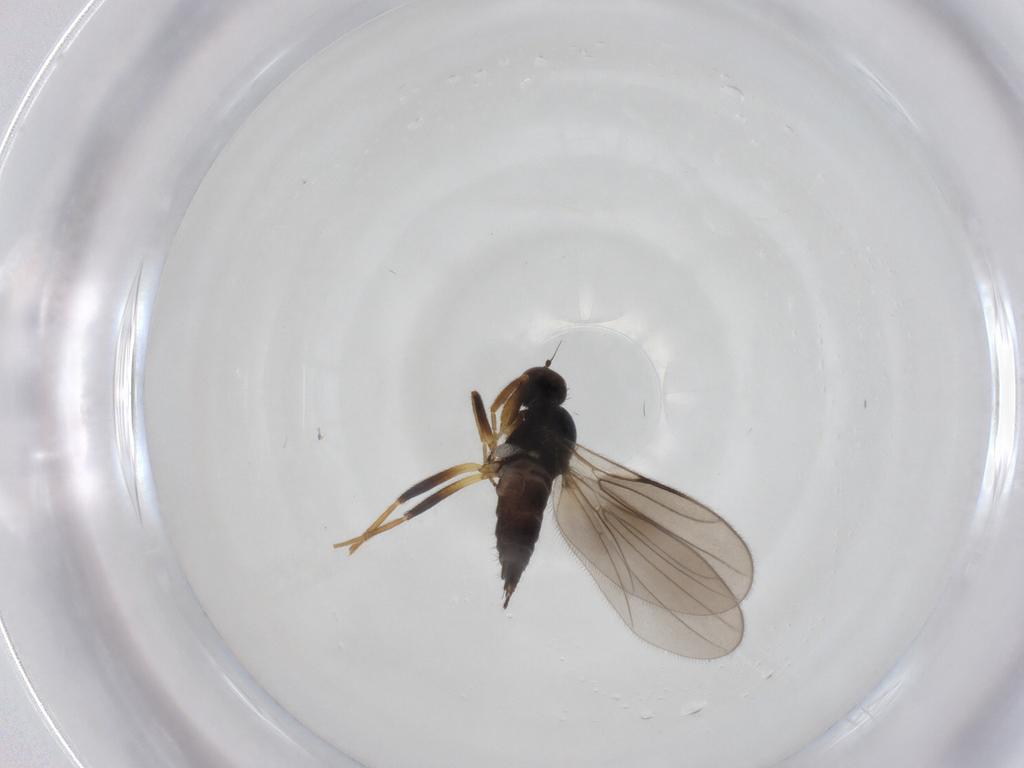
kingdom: Animalia
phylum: Arthropoda
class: Insecta
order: Diptera
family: Hybotidae
